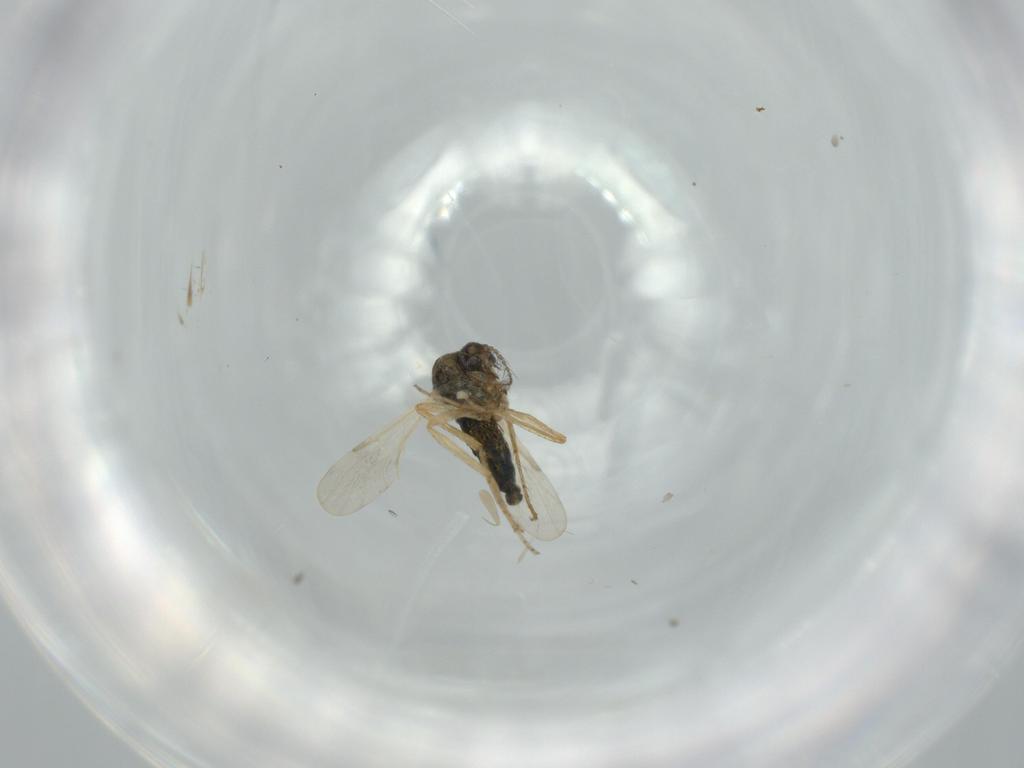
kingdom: Animalia
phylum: Arthropoda
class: Insecta
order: Diptera
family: Ceratopogonidae
